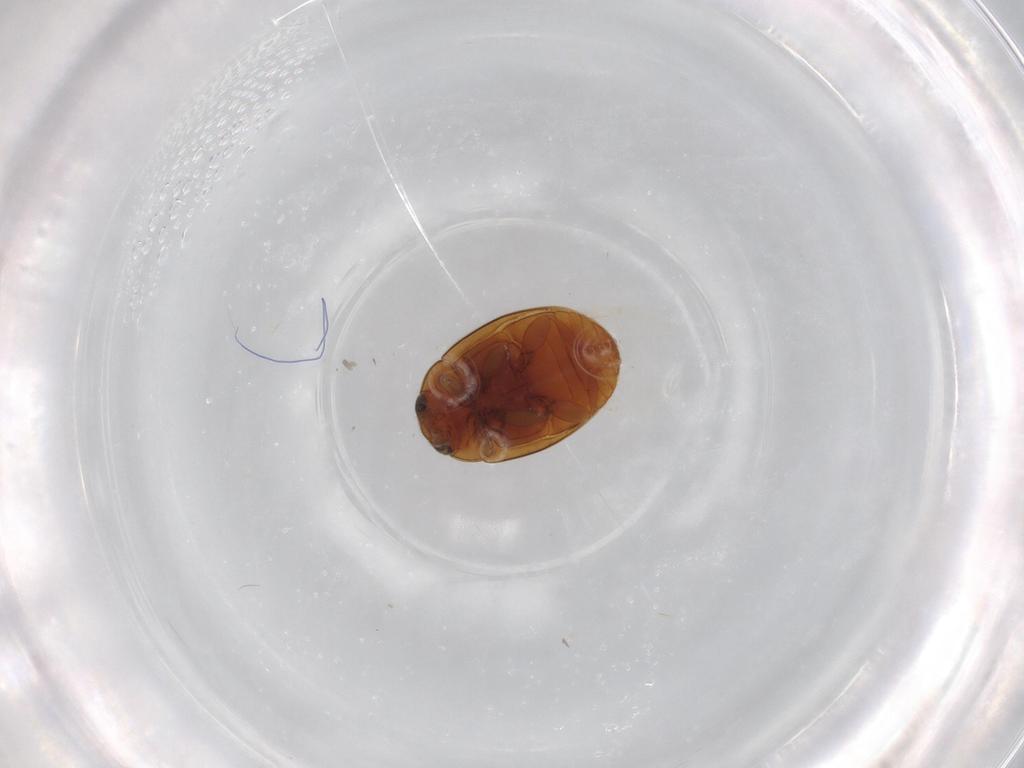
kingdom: Animalia
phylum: Arthropoda
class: Insecta
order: Coleoptera
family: Coccinellidae
